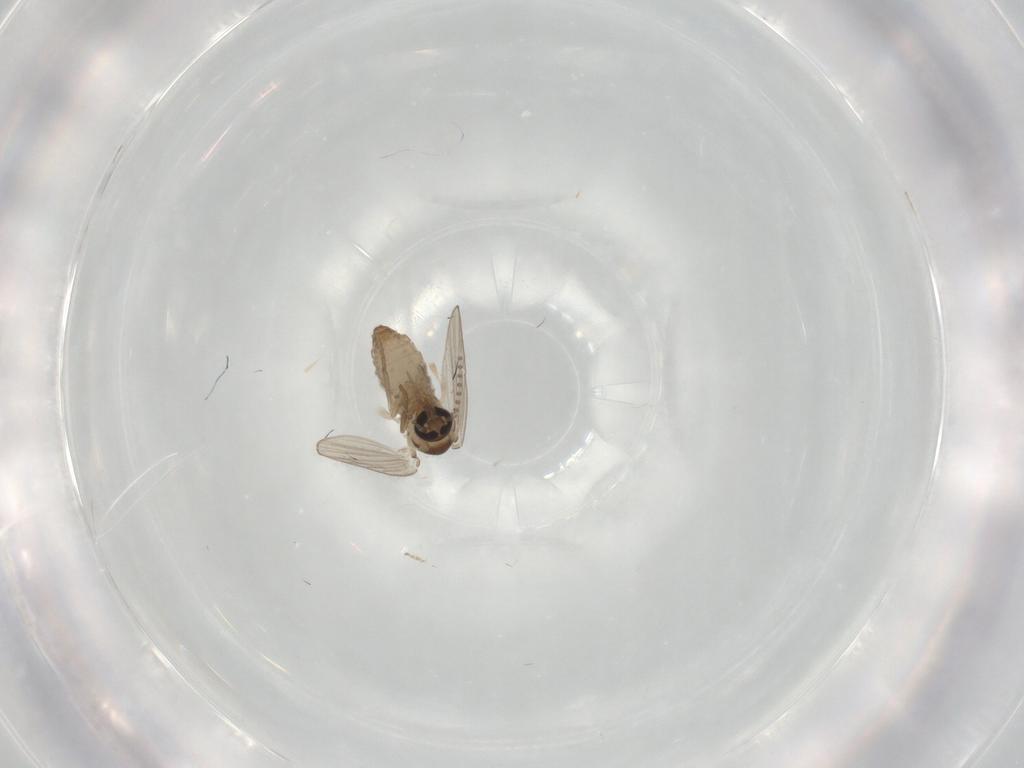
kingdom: Animalia
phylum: Arthropoda
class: Insecta
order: Diptera
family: Psychodidae
